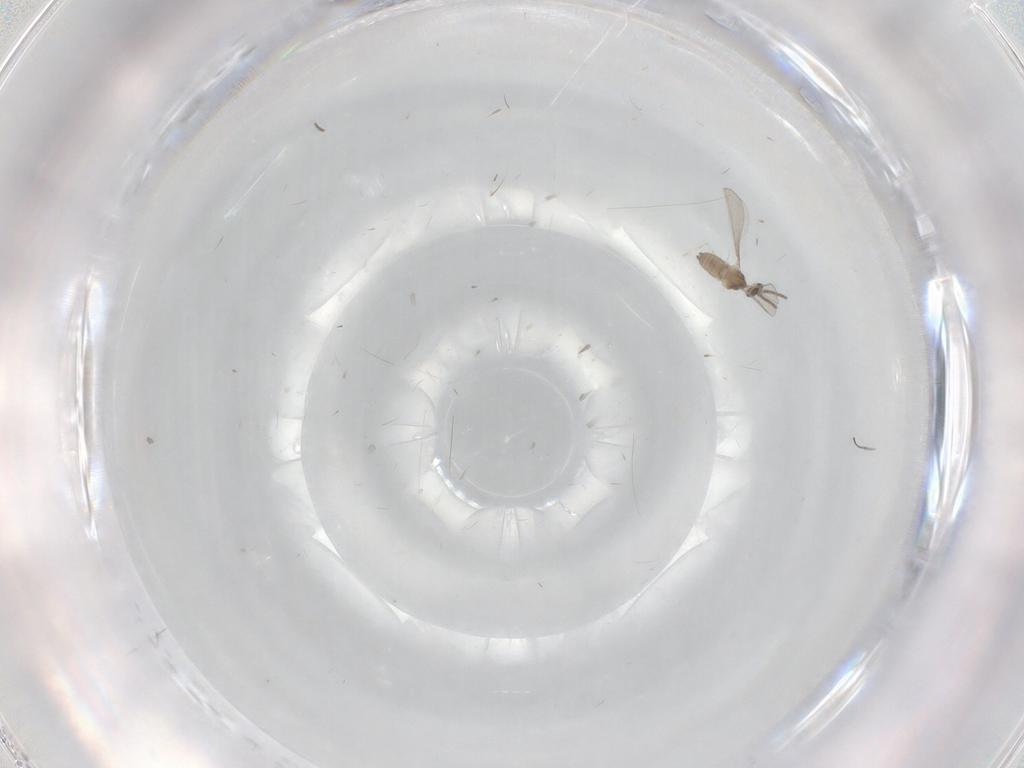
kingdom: Animalia
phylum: Arthropoda
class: Insecta
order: Diptera
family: Cecidomyiidae
